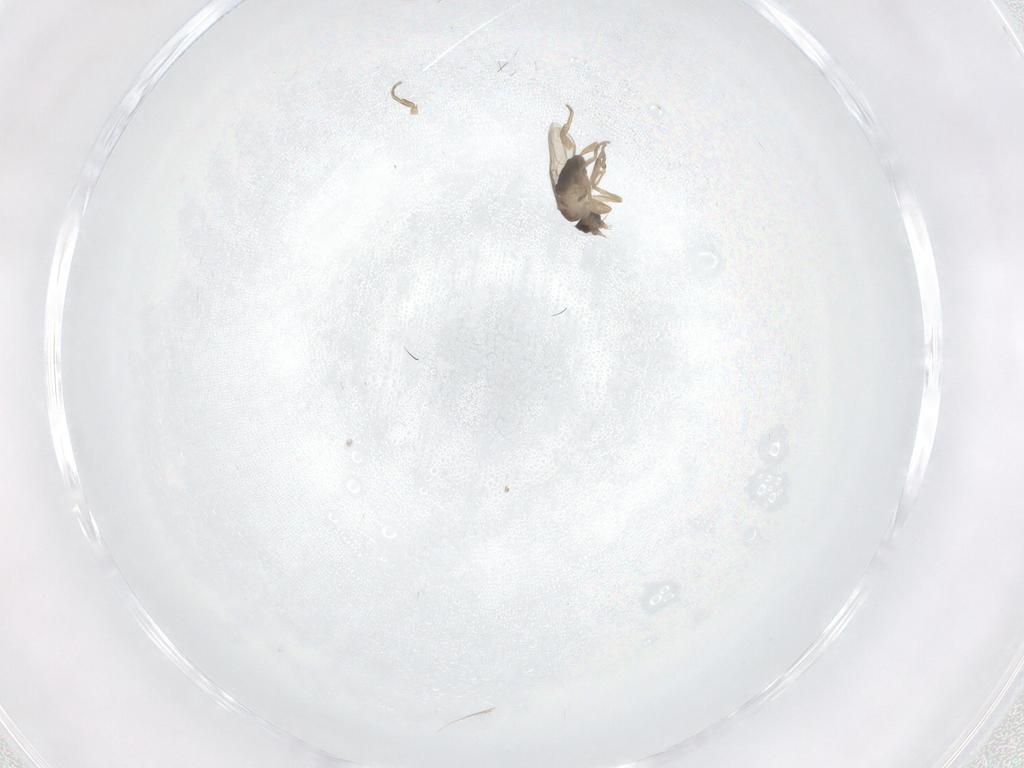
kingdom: Animalia
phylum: Arthropoda
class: Insecta
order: Diptera
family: Phoridae
